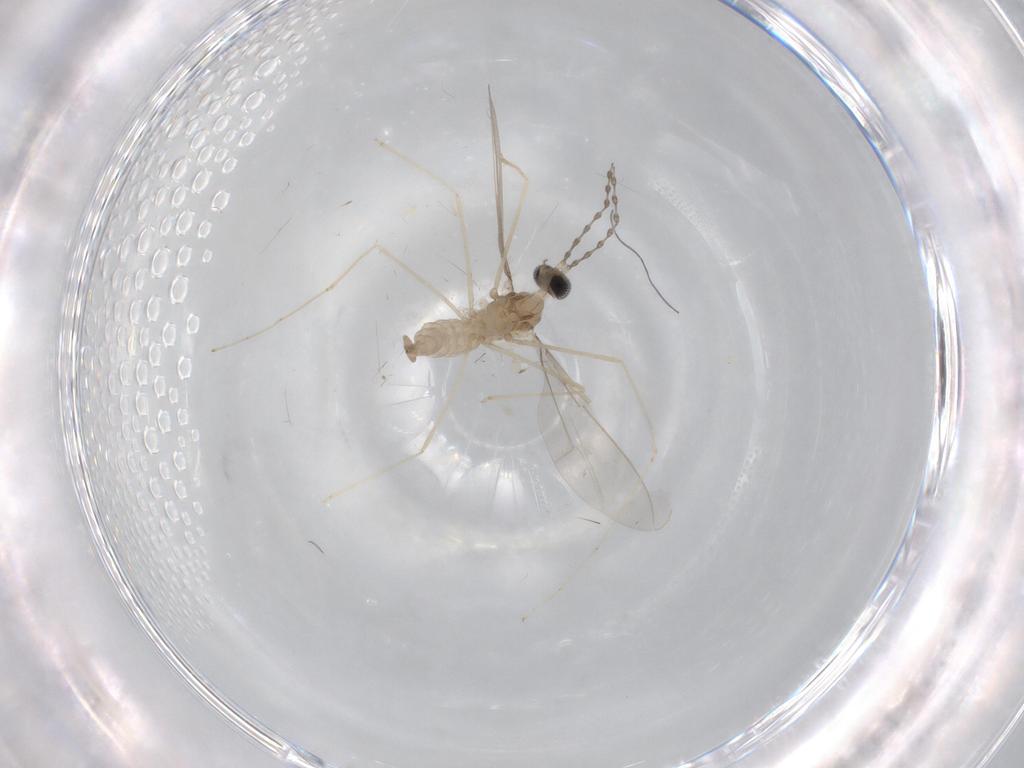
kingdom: Animalia
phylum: Arthropoda
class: Insecta
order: Diptera
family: Cecidomyiidae
